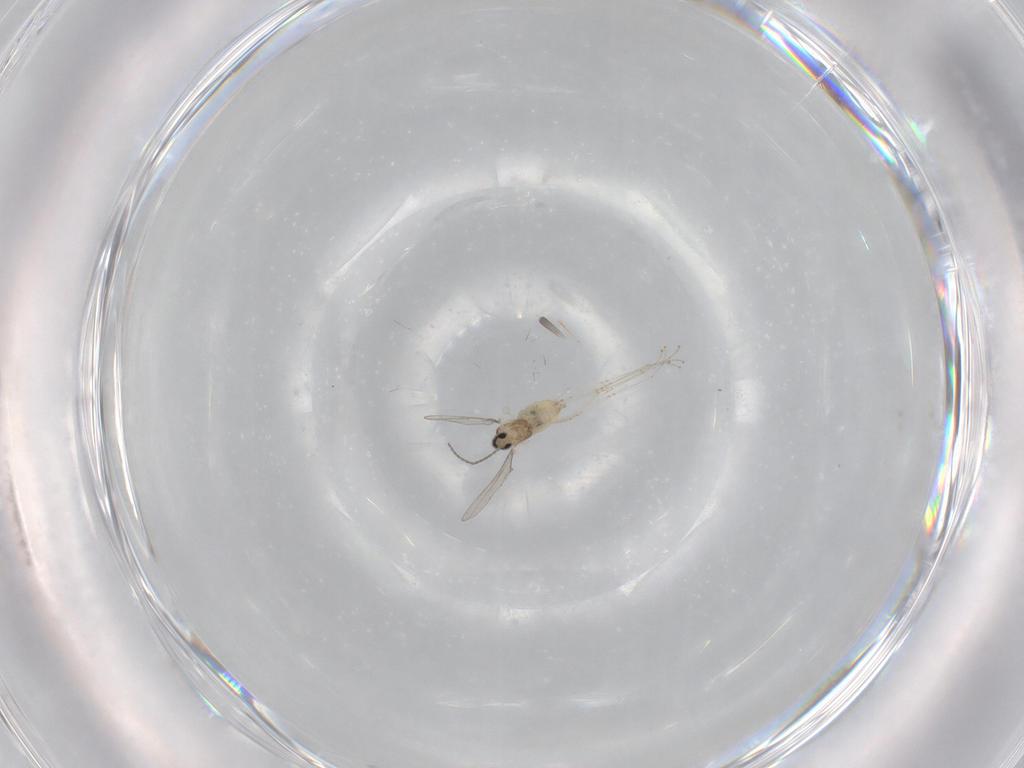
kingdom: Animalia
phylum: Arthropoda
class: Insecta
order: Diptera
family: Cecidomyiidae
